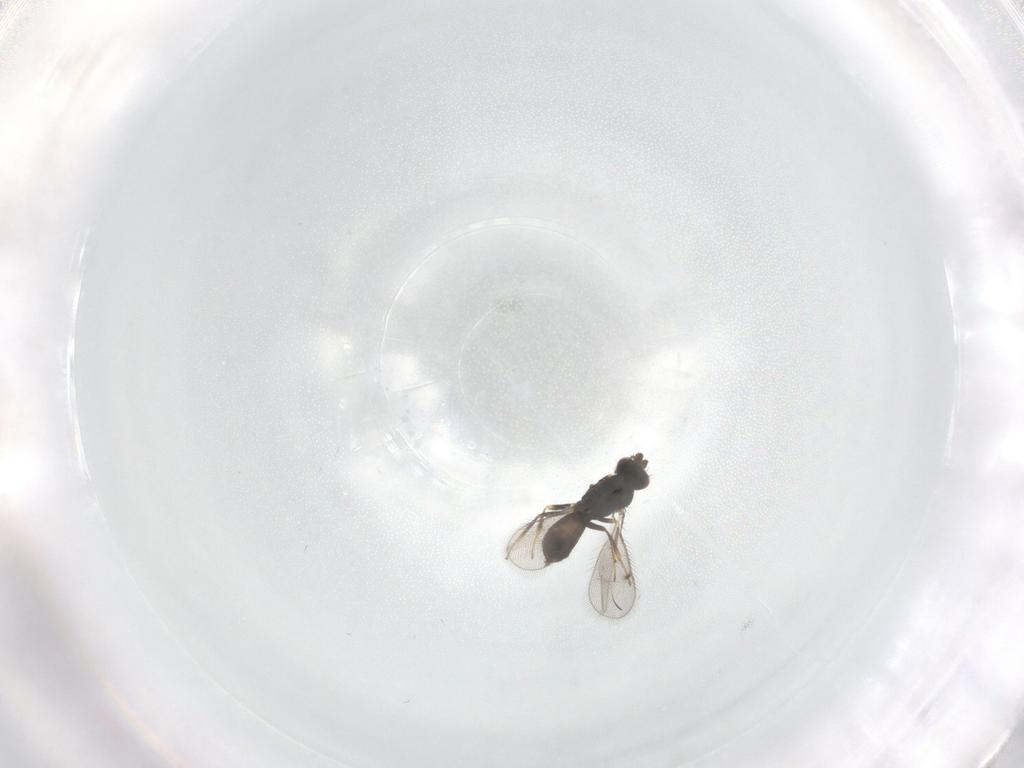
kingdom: Animalia
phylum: Arthropoda
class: Insecta
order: Hymenoptera
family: Eulophidae
